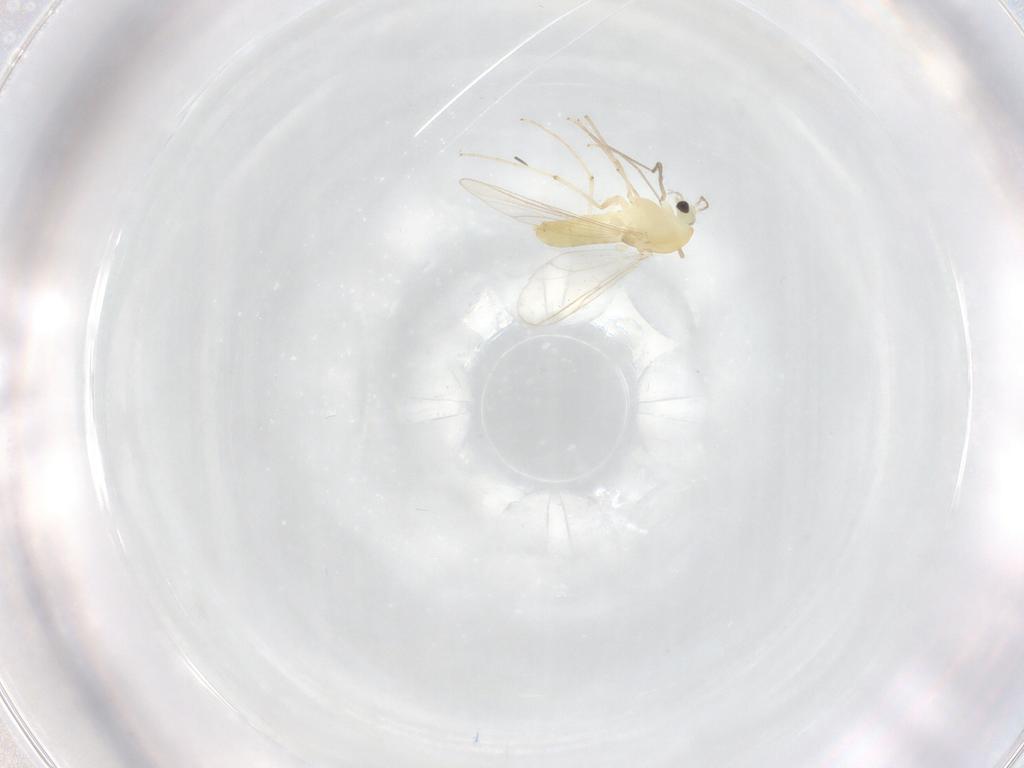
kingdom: Animalia
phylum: Arthropoda
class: Insecta
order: Diptera
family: Chironomidae
